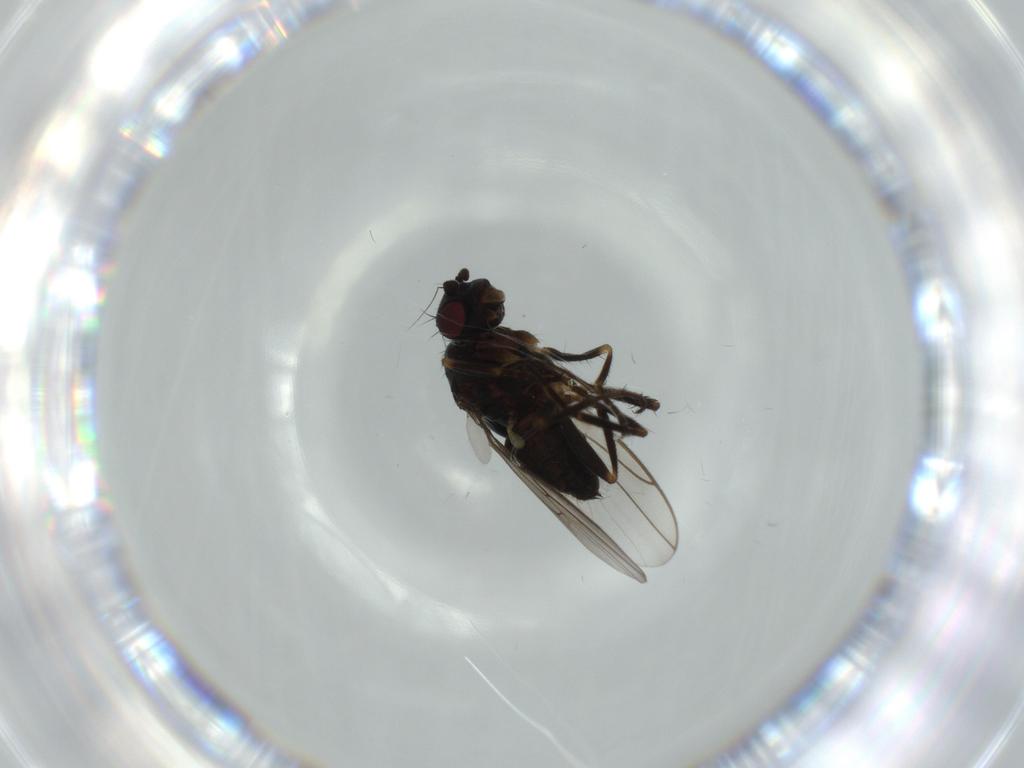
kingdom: Animalia
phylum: Arthropoda
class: Insecta
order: Diptera
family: Sphaeroceridae
